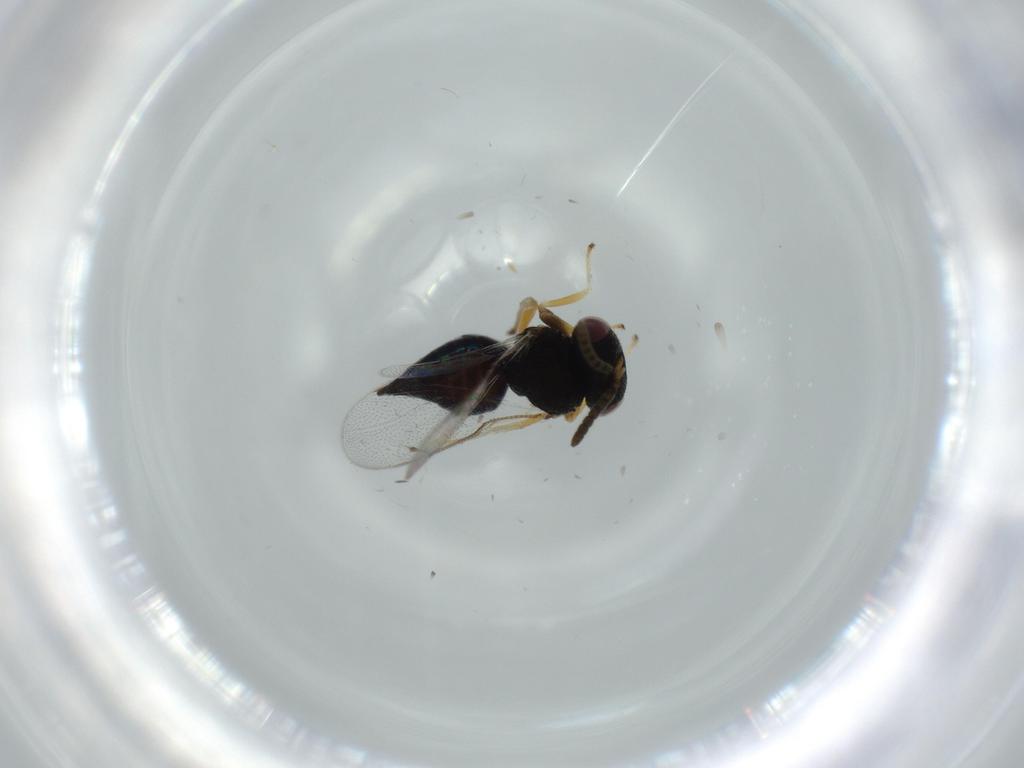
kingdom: Animalia
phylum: Arthropoda
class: Insecta
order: Hymenoptera
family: Pteromalidae
